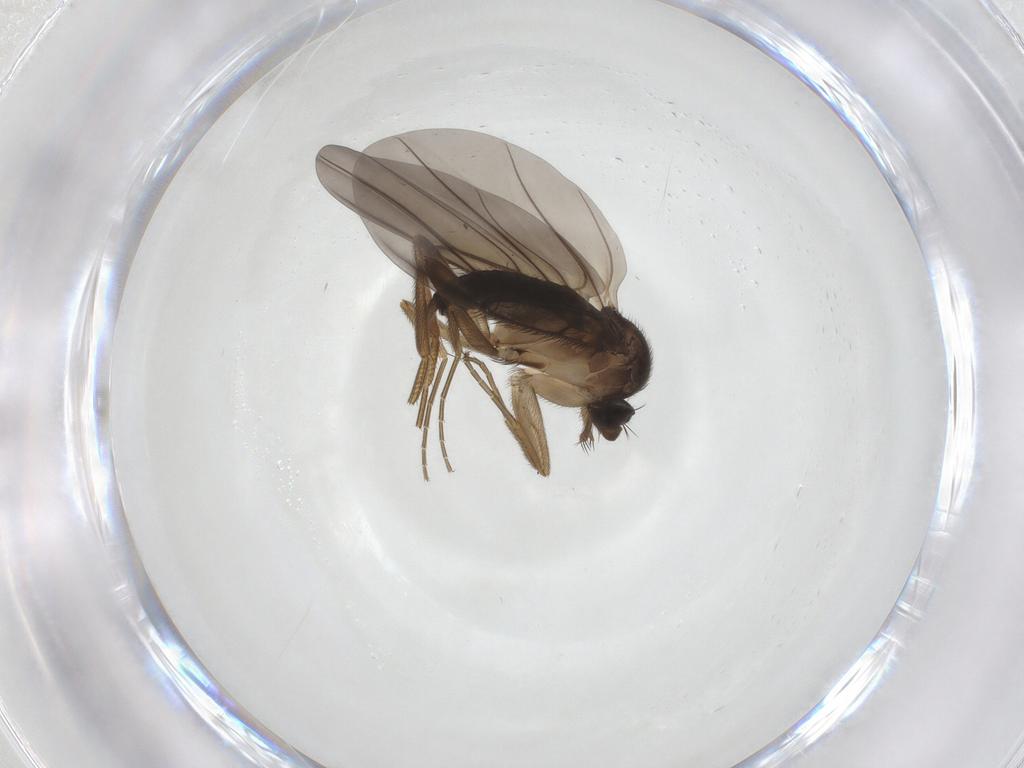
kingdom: Animalia
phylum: Arthropoda
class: Insecta
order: Diptera
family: Phoridae
